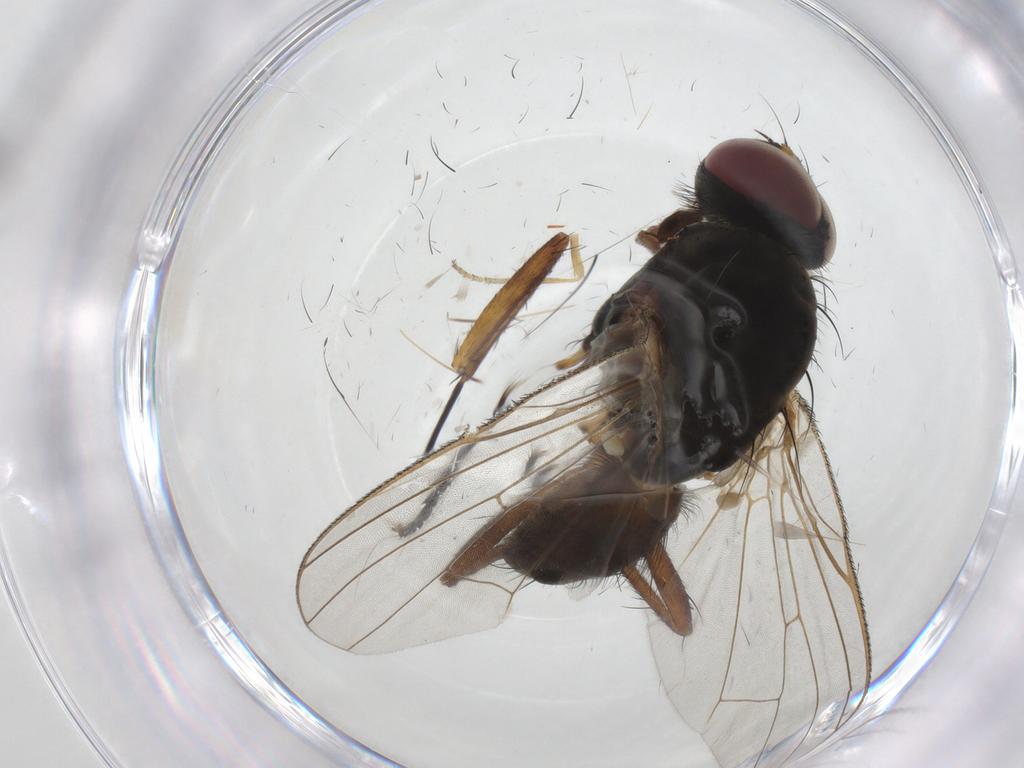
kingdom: Animalia
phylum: Arthropoda
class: Insecta
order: Diptera
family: Anthomyiidae
